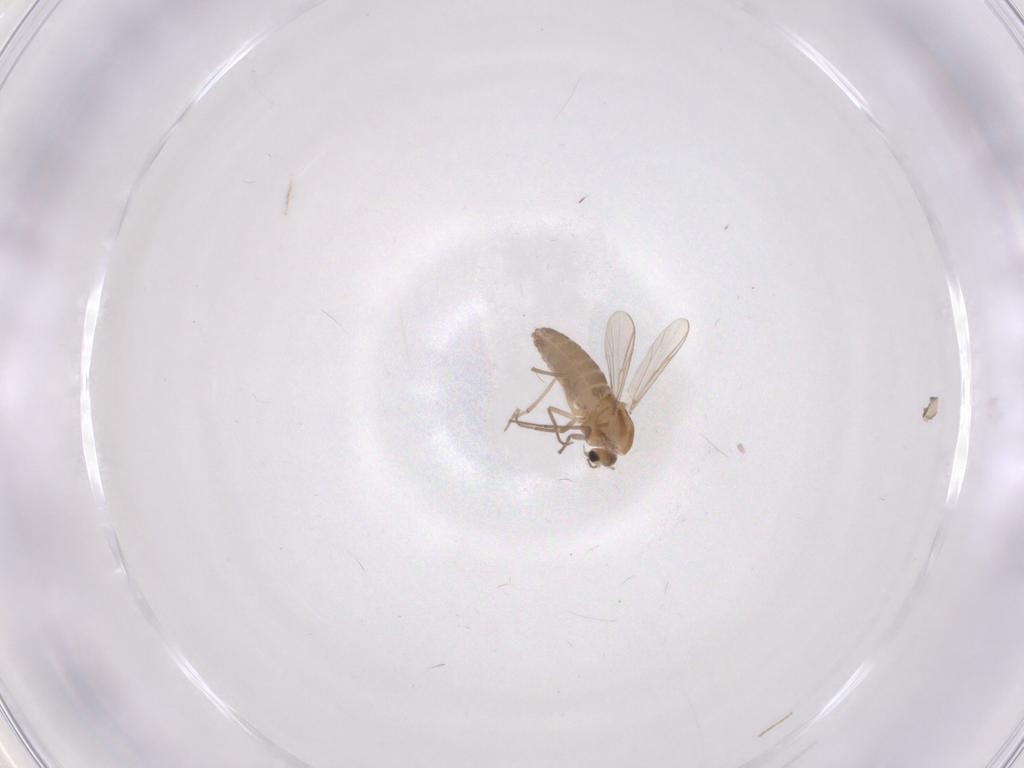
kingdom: Animalia
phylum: Arthropoda
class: Insecta
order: Diptera
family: Chironomidae
